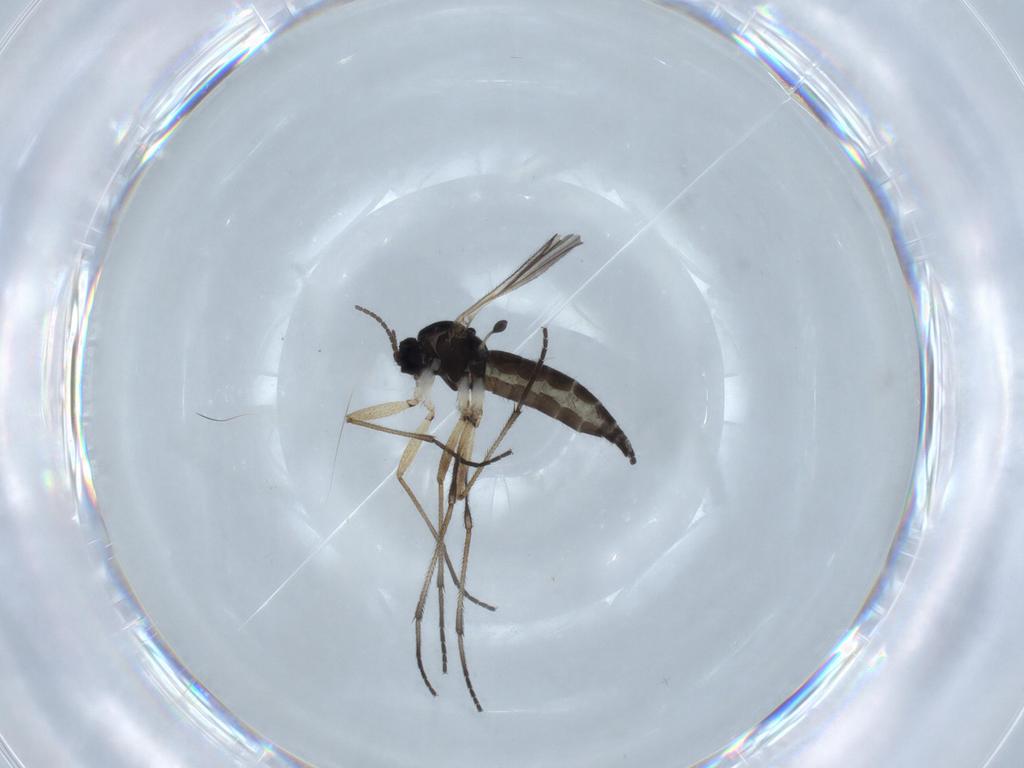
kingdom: Animalia
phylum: Arthropoda
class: Insecta
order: Diptera
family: Sciaridae
